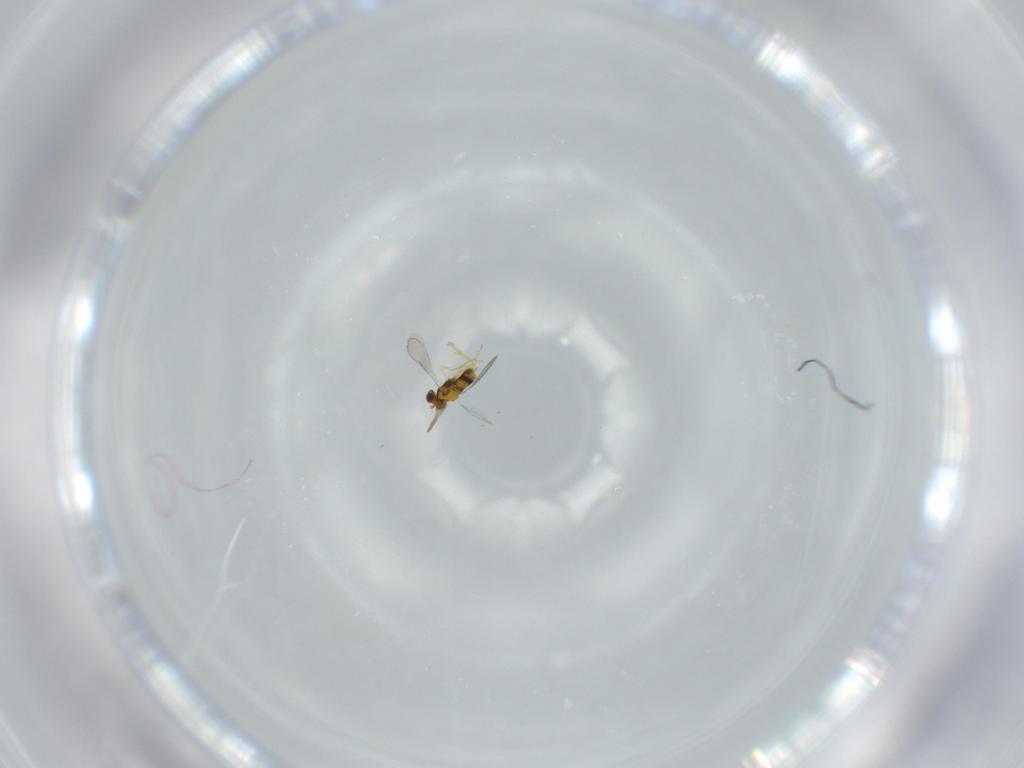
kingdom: Animalia
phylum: Arthropoda
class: Insecta
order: Hymenoptera
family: Aphelinidae
